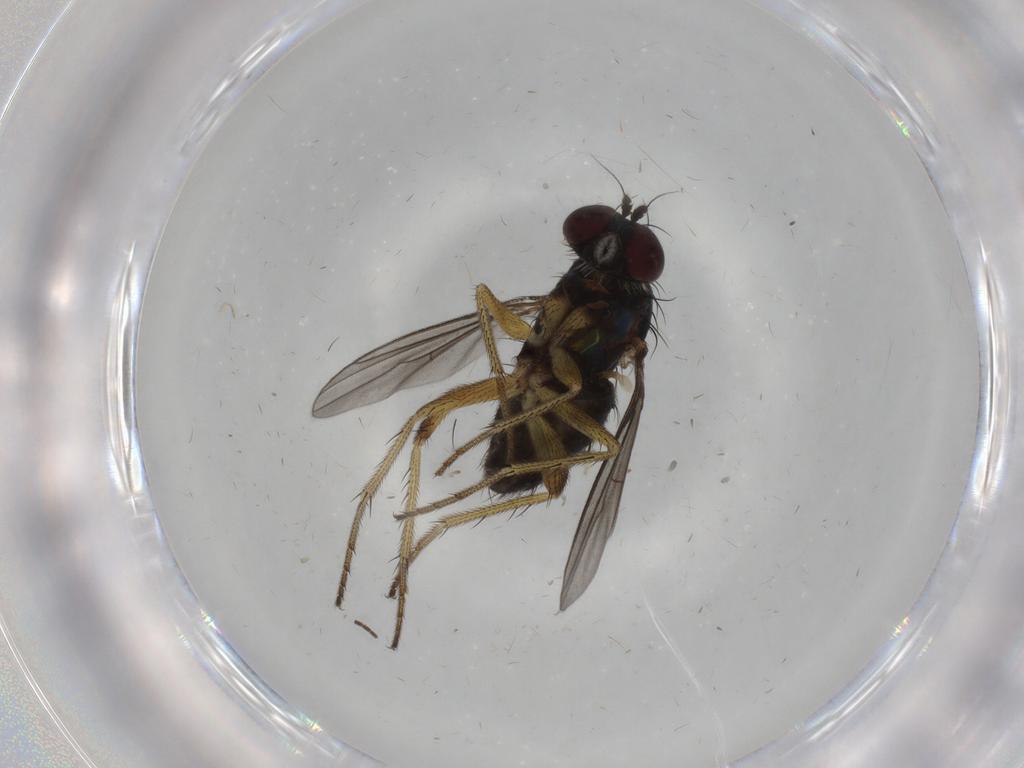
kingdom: Animalia
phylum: Arthropoda
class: Insecta
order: Diptera
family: Dolichopodidae
